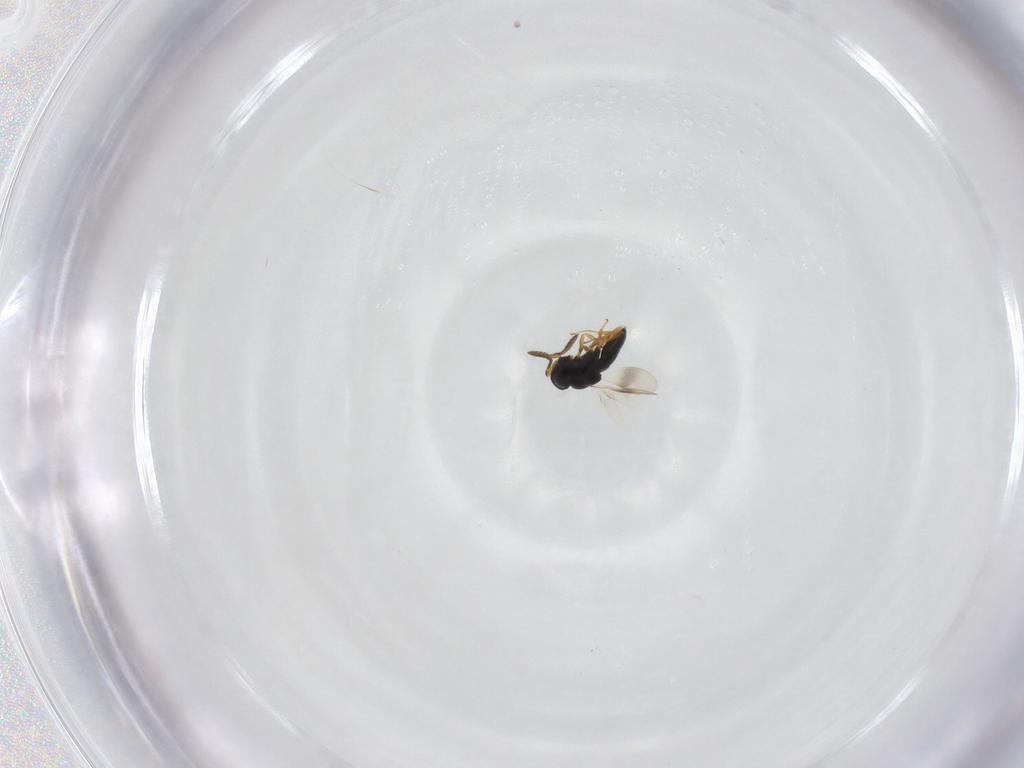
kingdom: Animalia
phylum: Arthropoda
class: Insecta
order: Hymenoptera
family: Scelionidae
